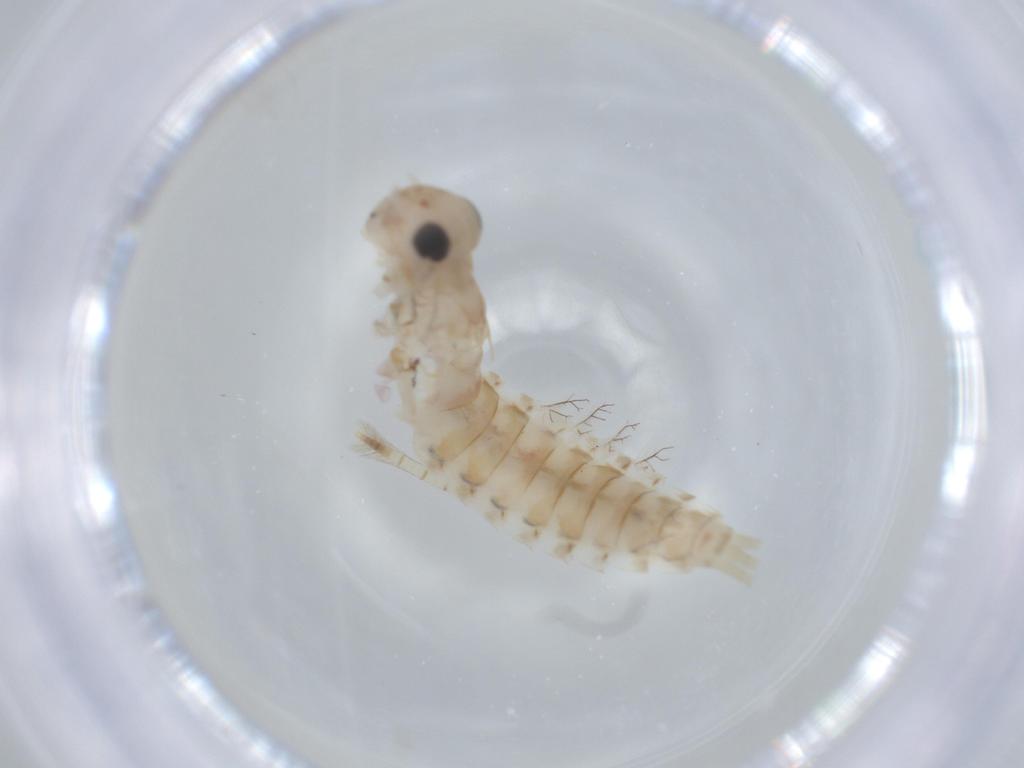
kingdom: Animalia
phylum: Arthropoda
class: Insecta
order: Ephemeroptera
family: Baetidae
